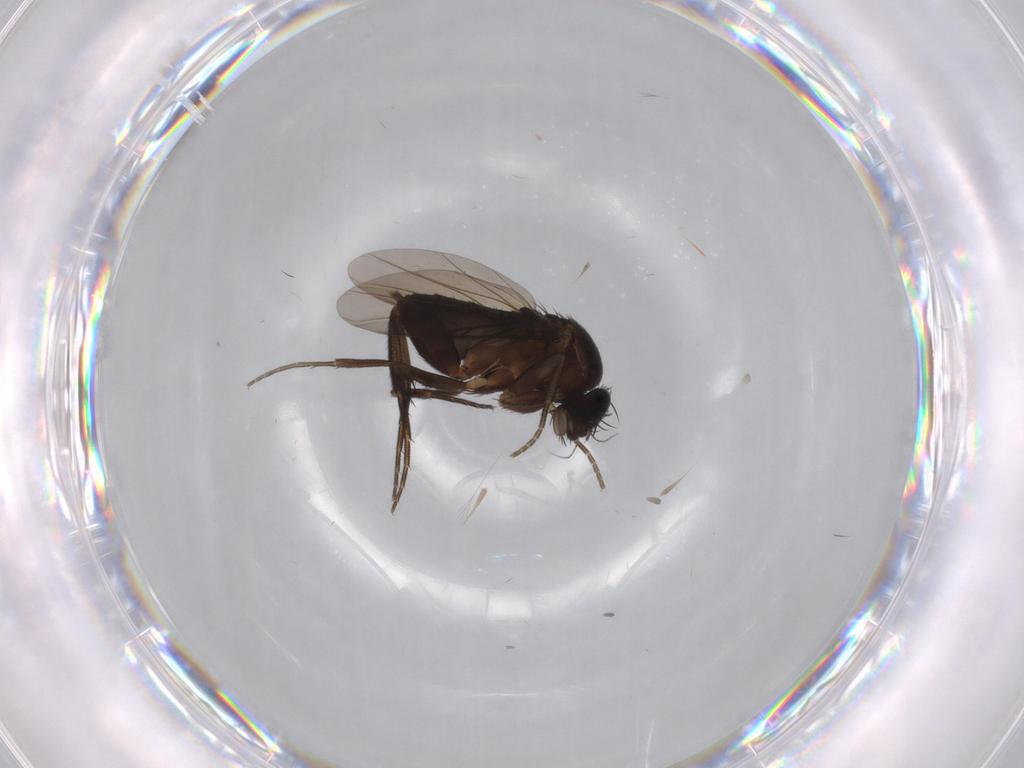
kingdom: Animalia
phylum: Arthropoda
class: Insecta
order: Diptera
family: Phoridae
